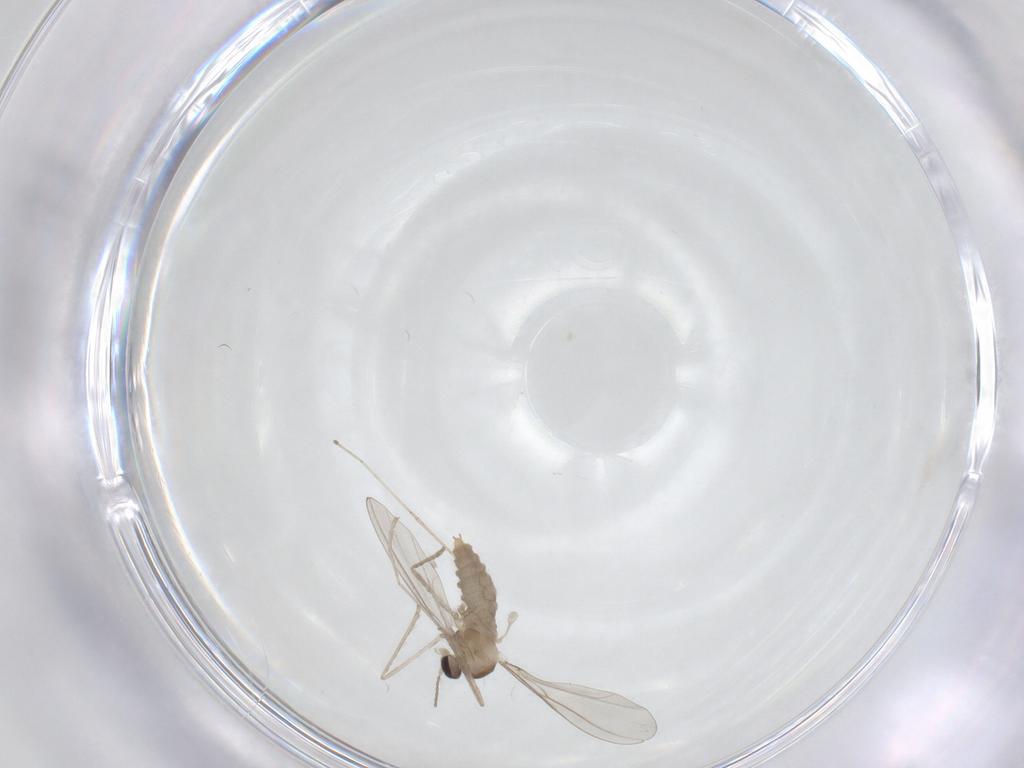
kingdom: Animalia
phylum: Arthropoda
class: Insecta
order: Diptera
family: Cecidomyiidae
